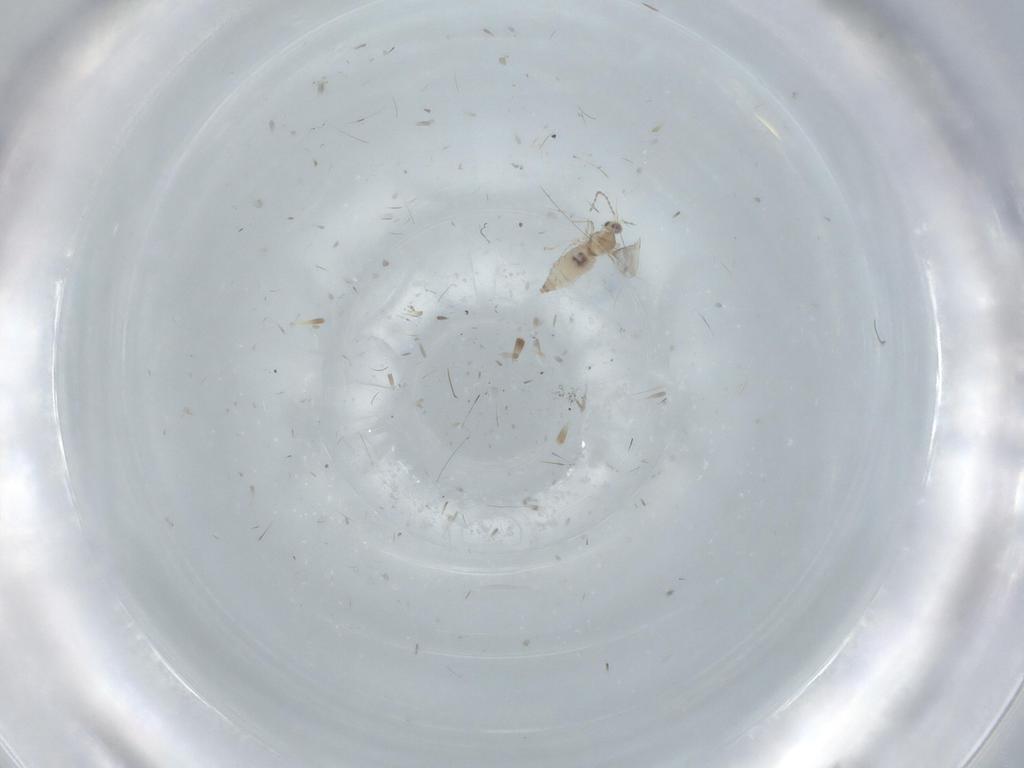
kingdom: Animalia
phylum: Arthropoda
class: Insecta
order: Diptera
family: Cecidomyiidae
